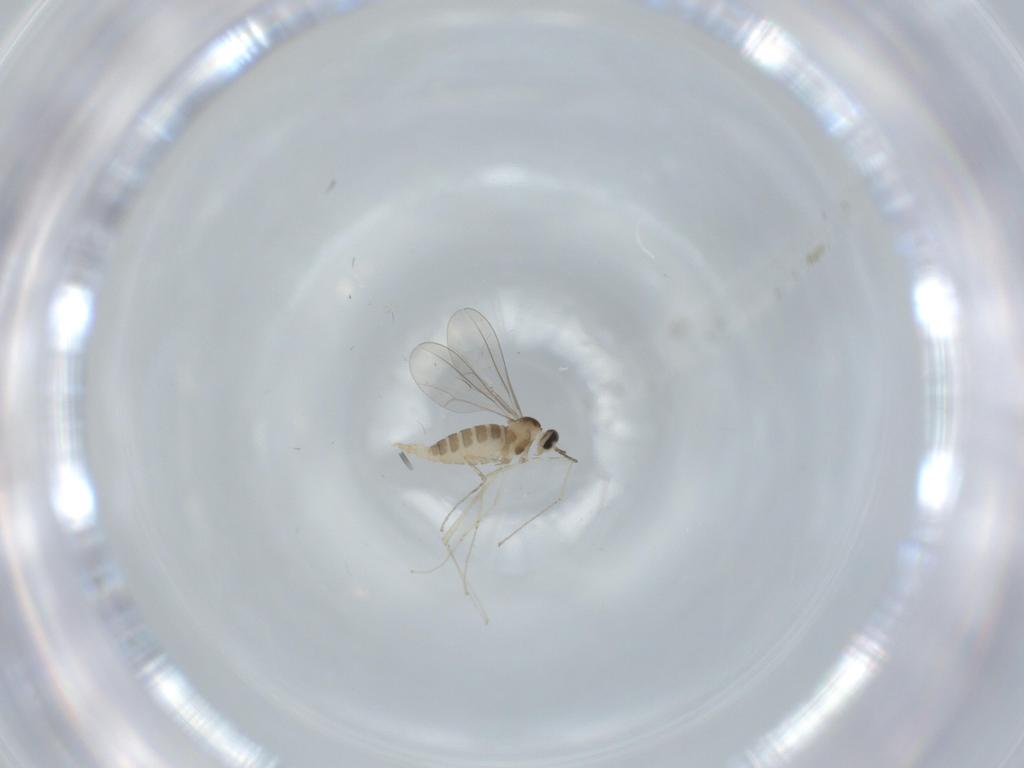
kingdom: Animalia
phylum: Arthropoda
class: Insecta
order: Diptera
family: Cecidomyiidae
